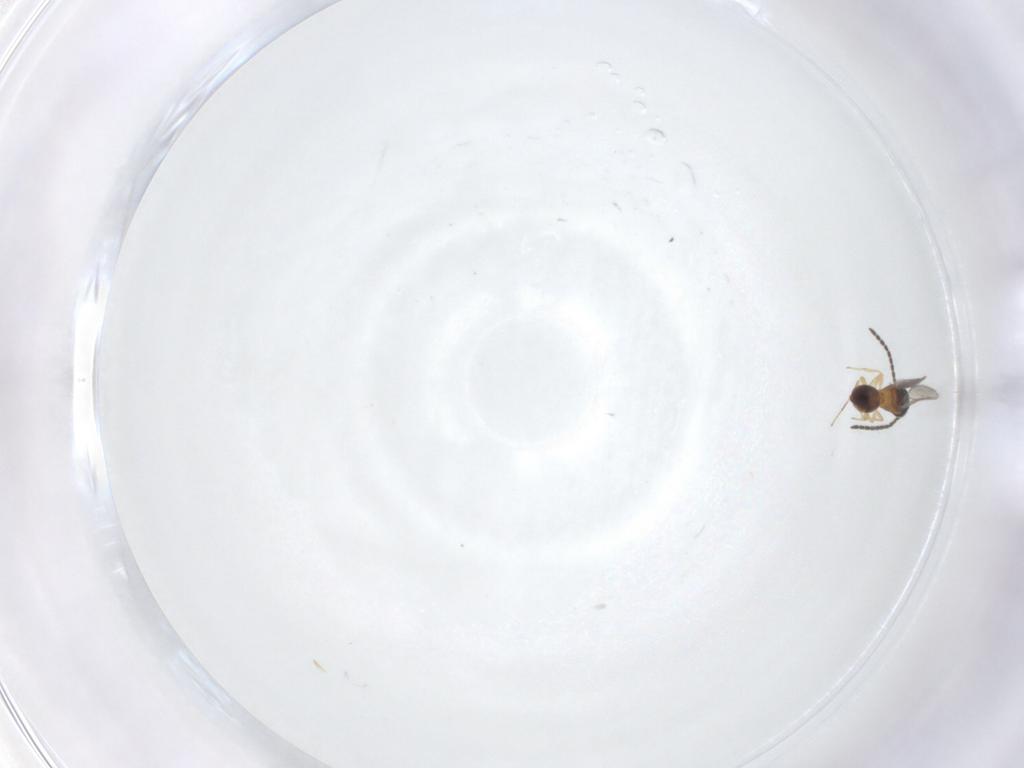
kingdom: Animalia
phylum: Arthropoda
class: Insecta
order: Hymenoptera
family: Scelionidae
